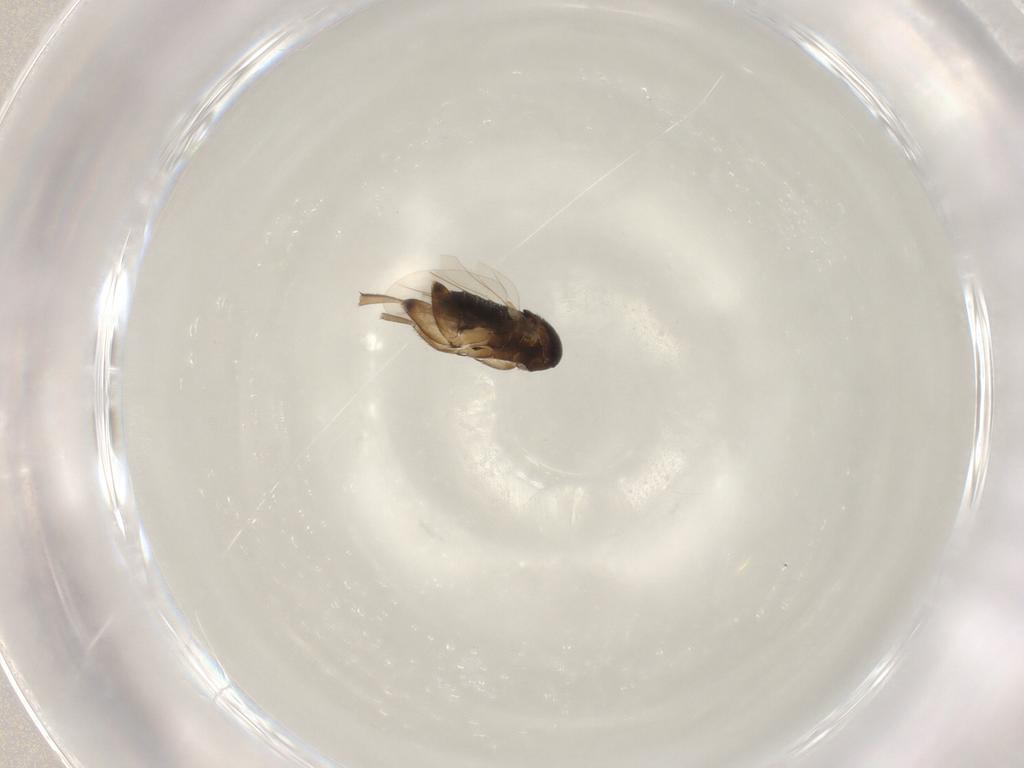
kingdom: Animalia
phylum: Arthropoda
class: Insecta
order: Diptera
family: Phoridae
